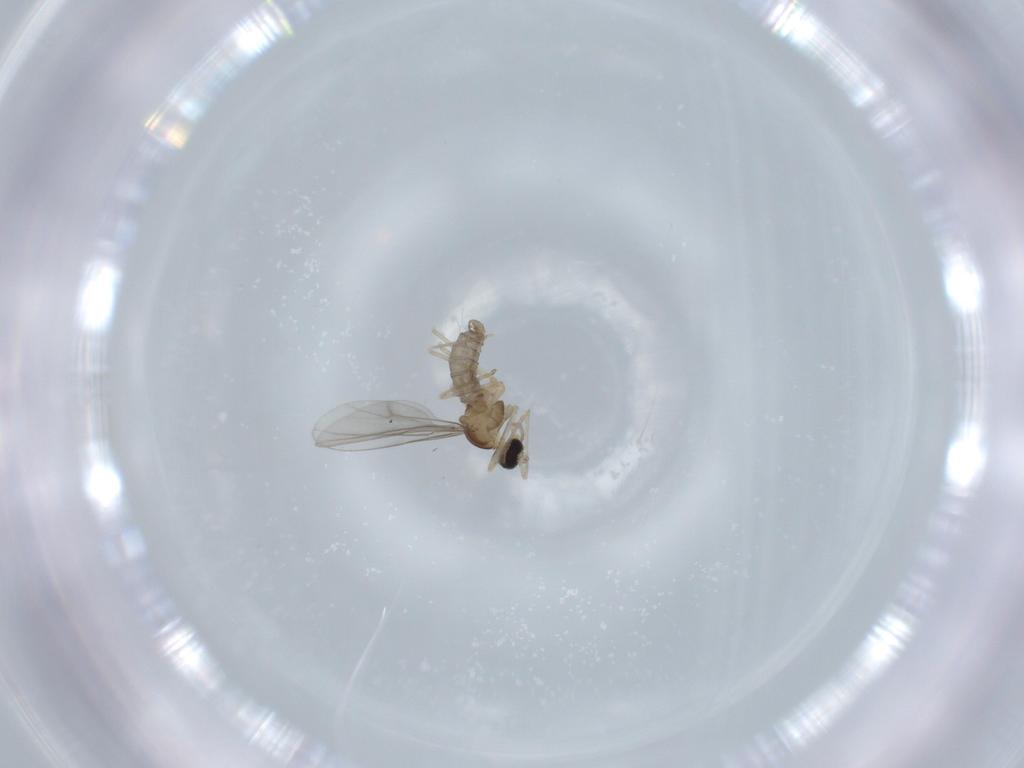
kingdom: Animalia
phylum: Arthropoda
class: Insecta
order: Diptera
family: Cecidomyiidae
